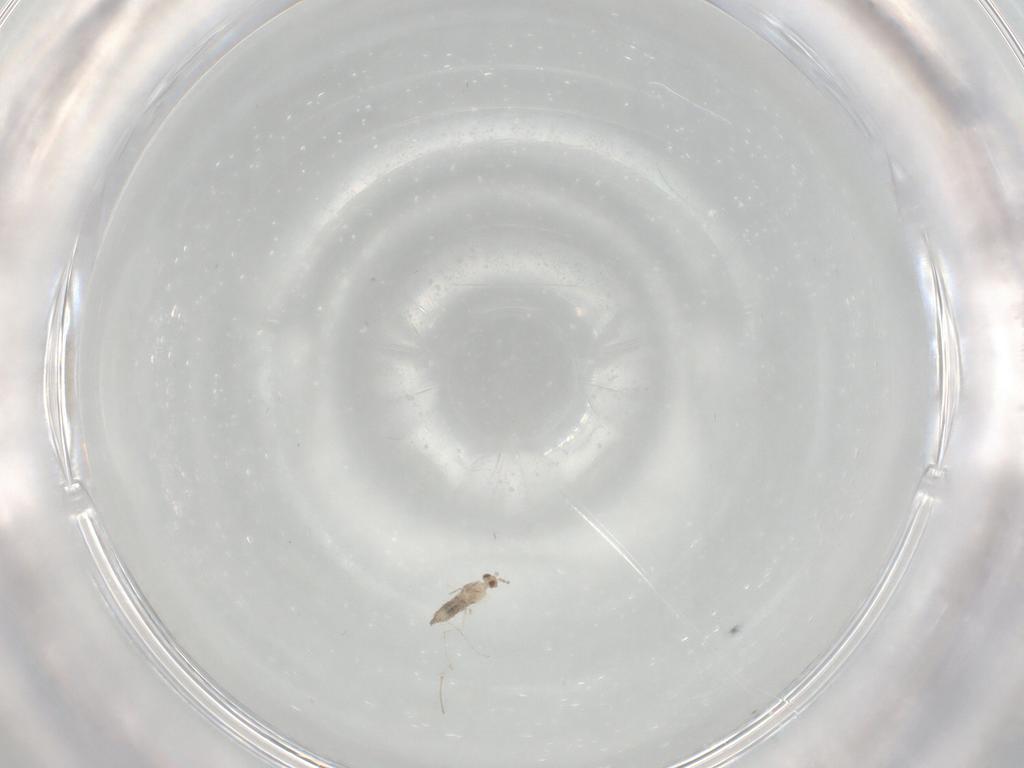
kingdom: Animalia
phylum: Arthropoda
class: Insecta
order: Diptera
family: Cecidomyiidae
